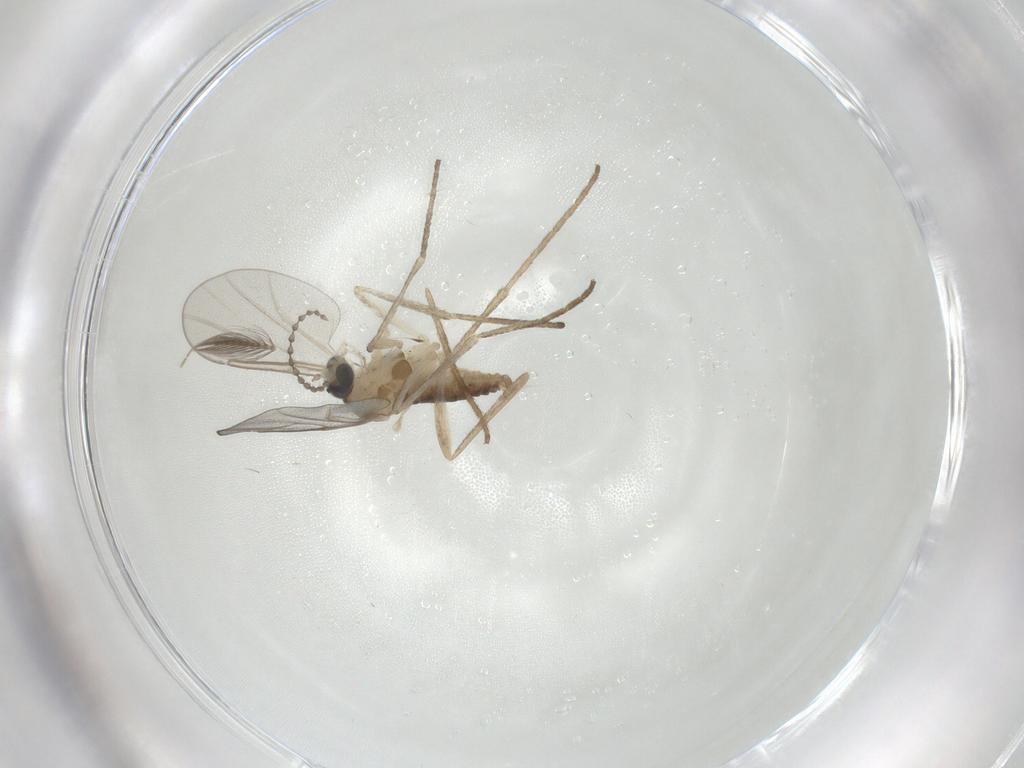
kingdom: Animalia
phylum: Arthropoda
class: Insecta
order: Diptera
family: Cecidomyiidae
